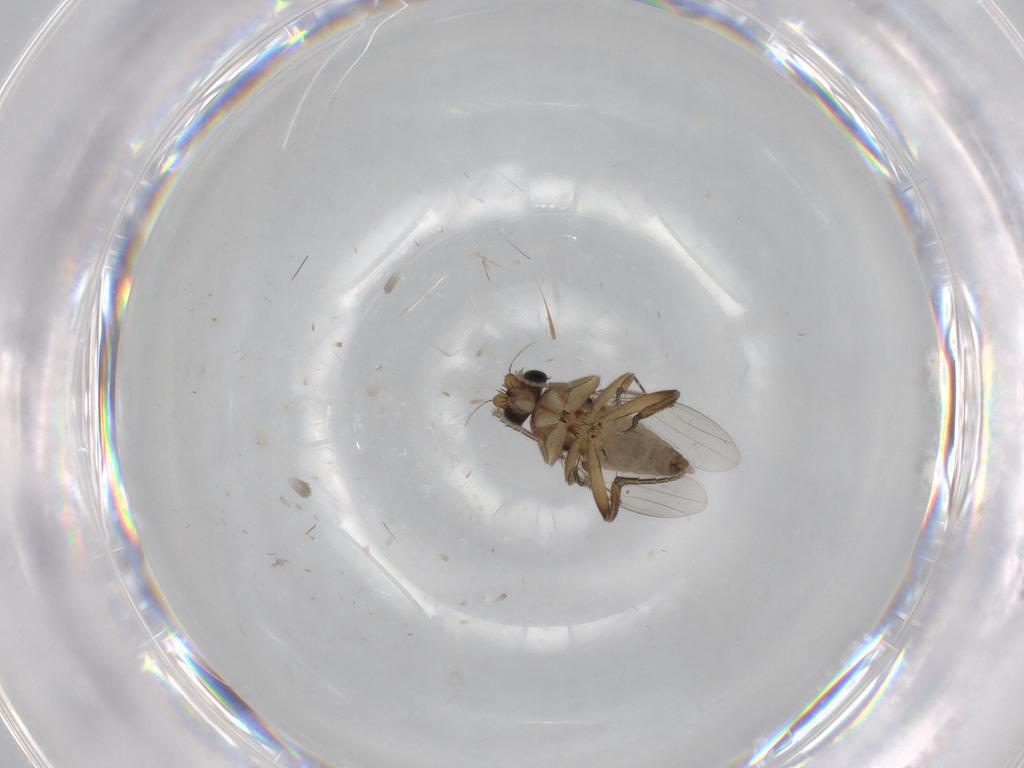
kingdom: Animalia
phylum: Arthropoda
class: Insecta
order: Diptera
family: Phoridae
